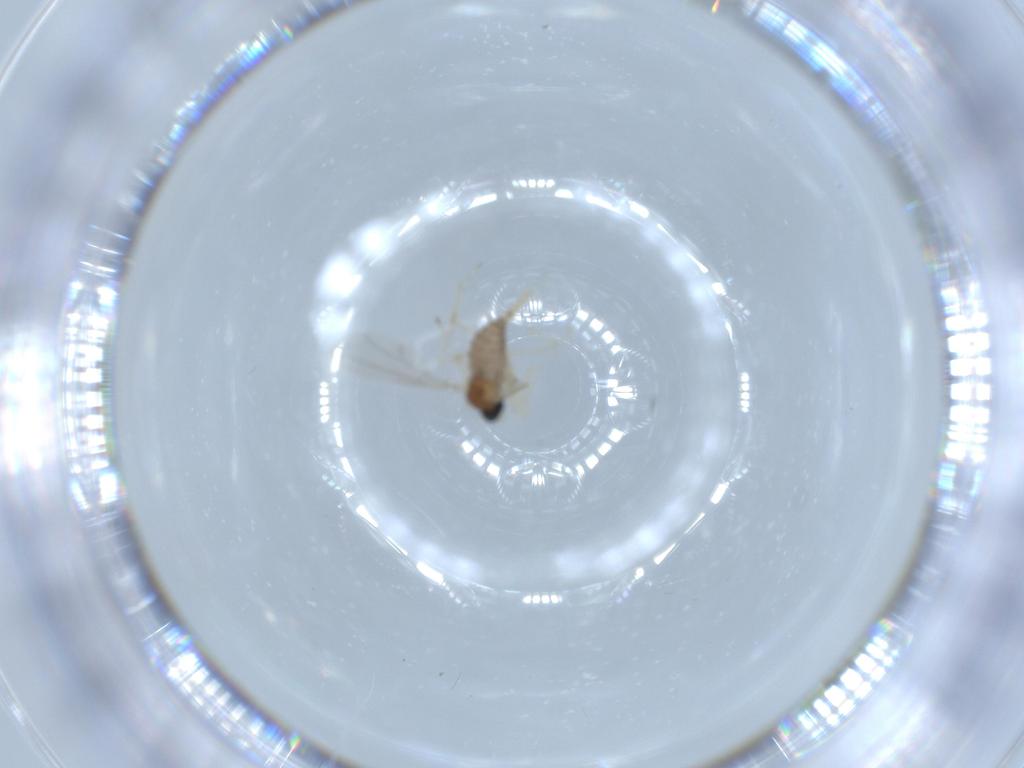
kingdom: Animalia
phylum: Arthropoda
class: Insecta
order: Diptera
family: Cecidomyiidae
